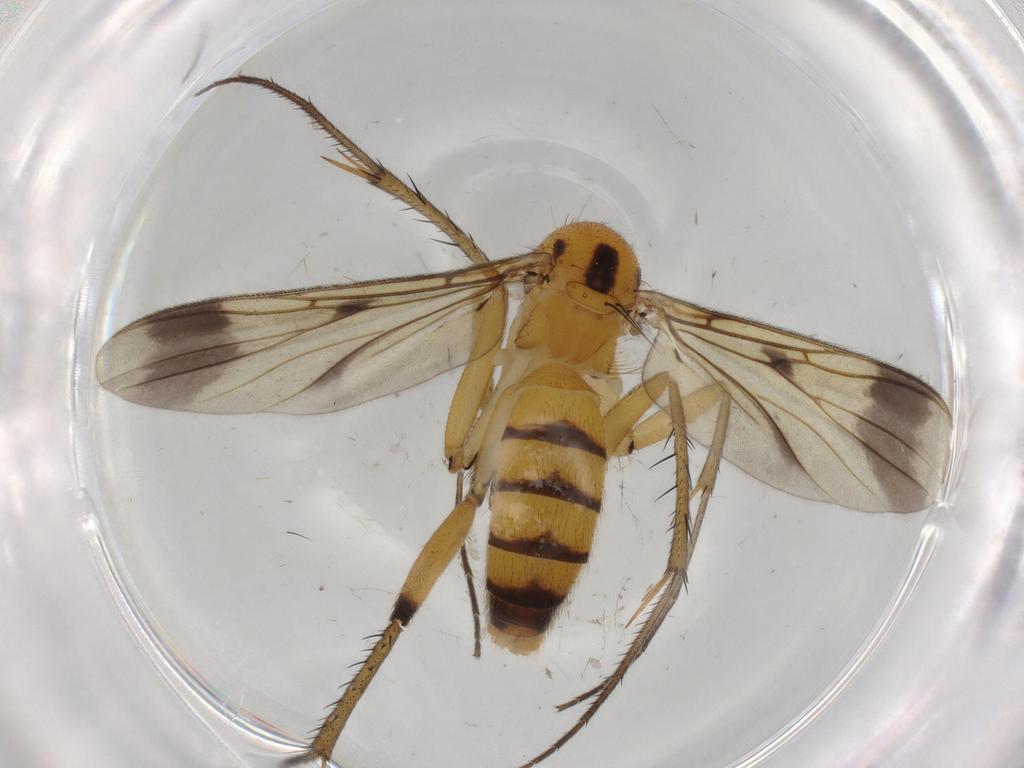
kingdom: Animalia
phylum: Arthropoda
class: Insecta
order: Diptera
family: Cecidomyiidae
